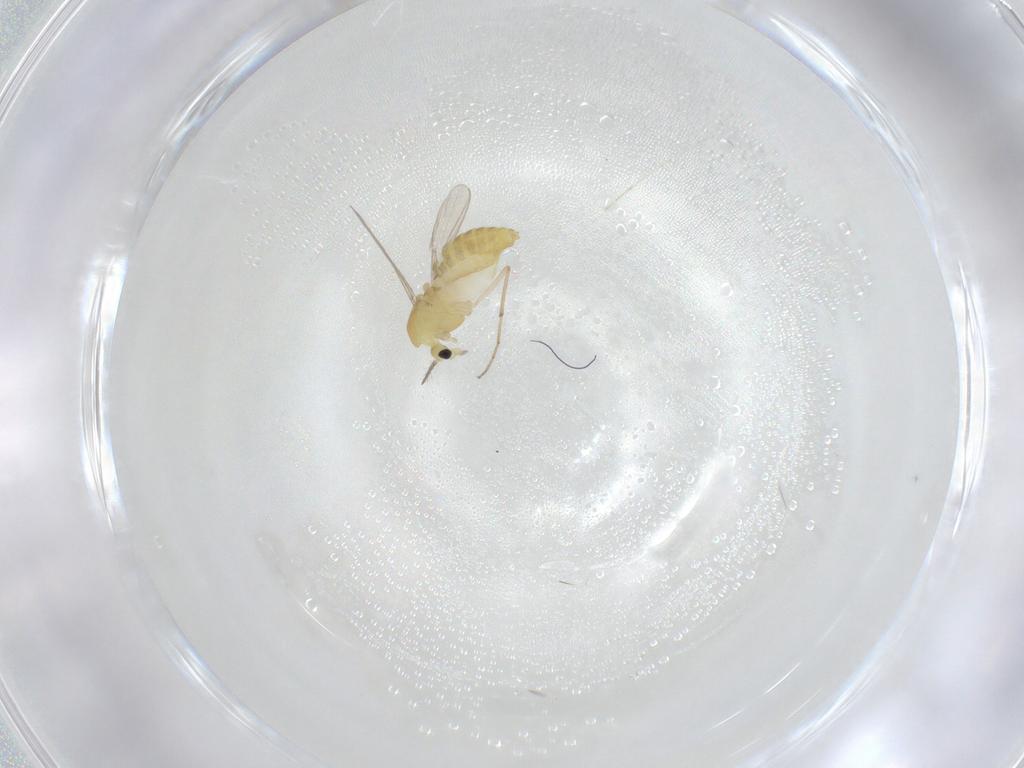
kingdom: Animalia
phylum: Arthropoda
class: Insecta
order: Diptera
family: Chironomidae
